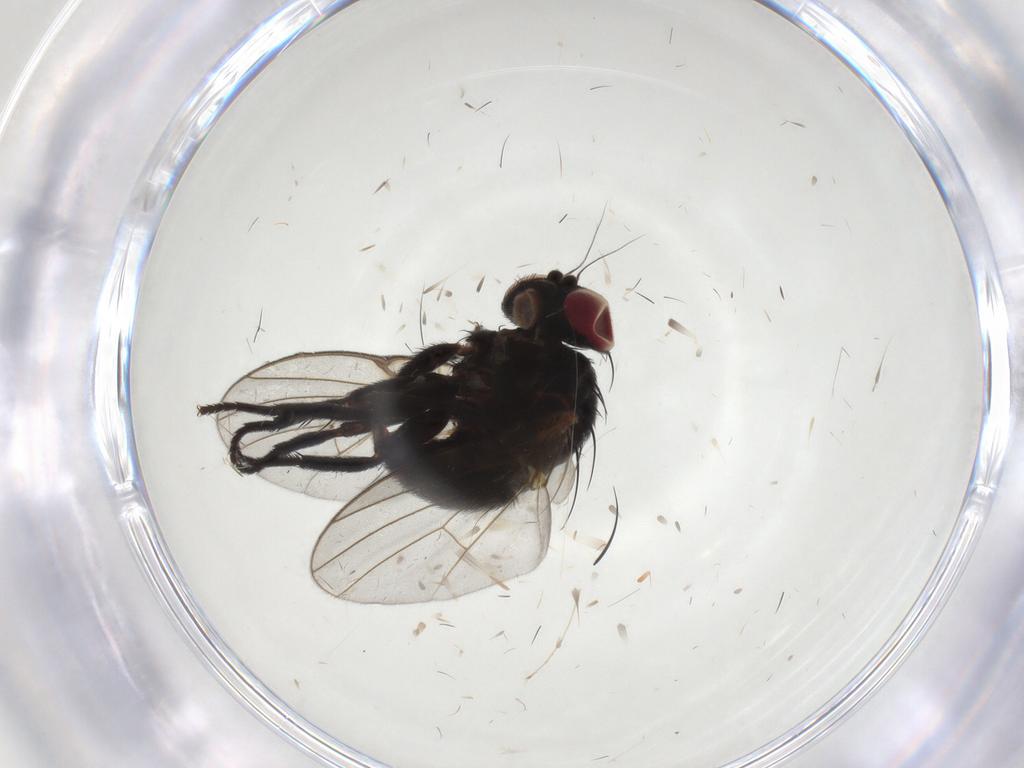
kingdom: Animalia
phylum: Arthropoda
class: Insecta
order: Diptera
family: Agromyzidae
